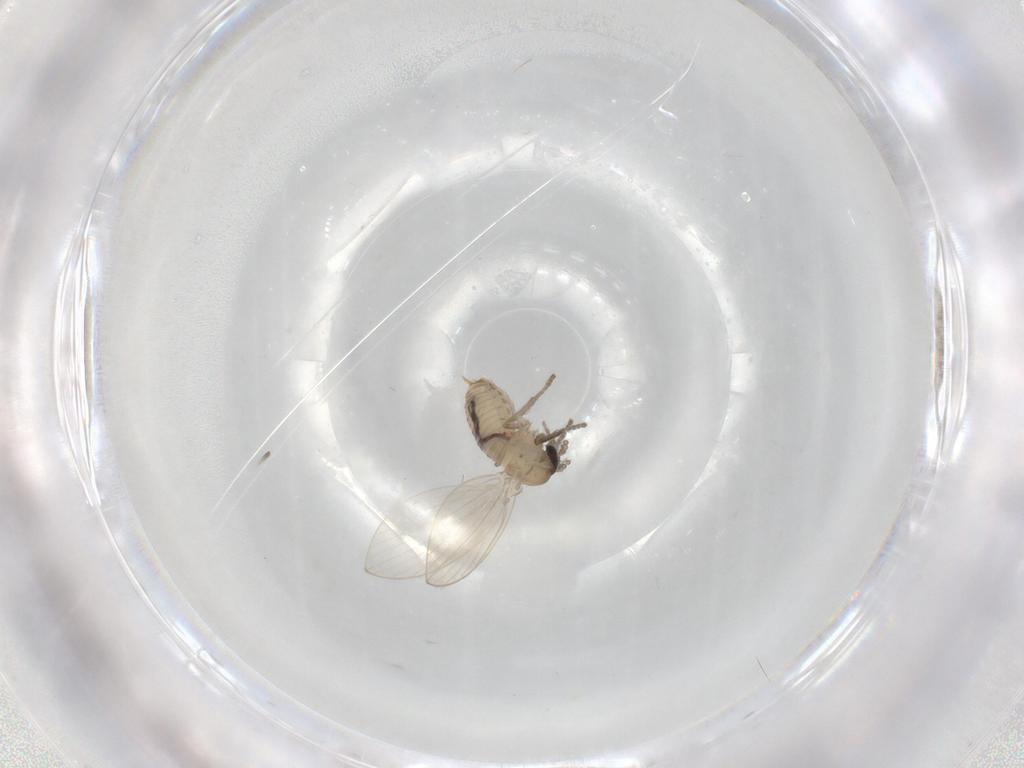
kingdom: Animalia
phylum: Arthropoda
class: Insecta
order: Diptera
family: Psychodidae
